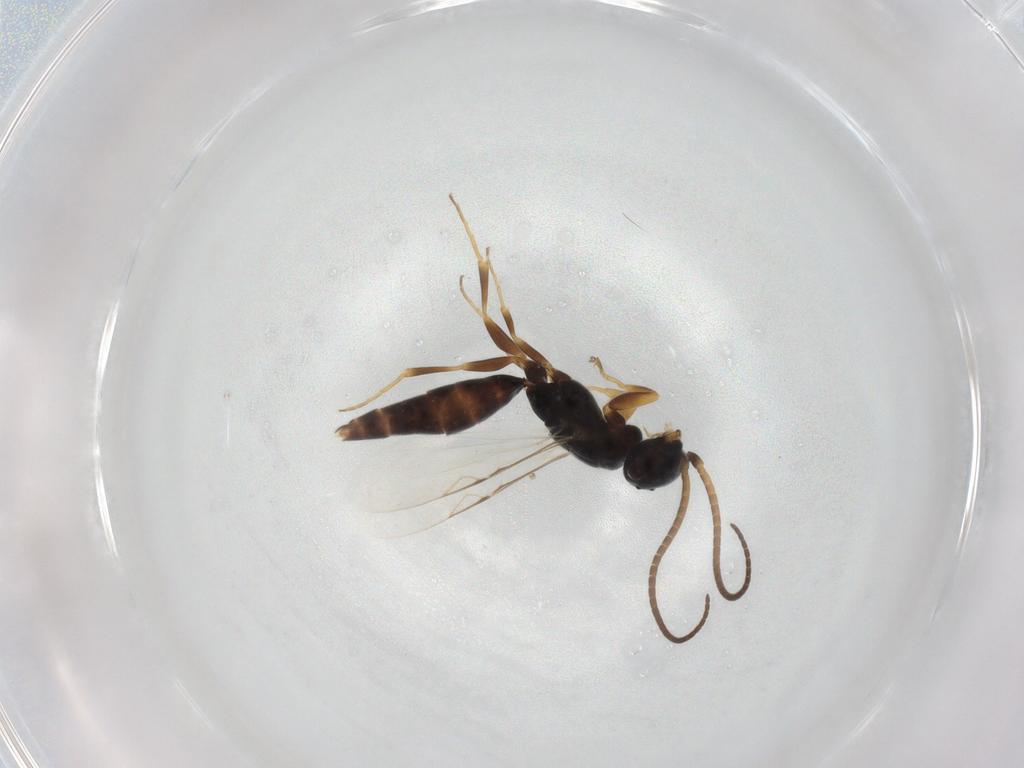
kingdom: Animalia
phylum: Arthropoda
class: Insecta
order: Hymenoptera
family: Sclerogibbidae
